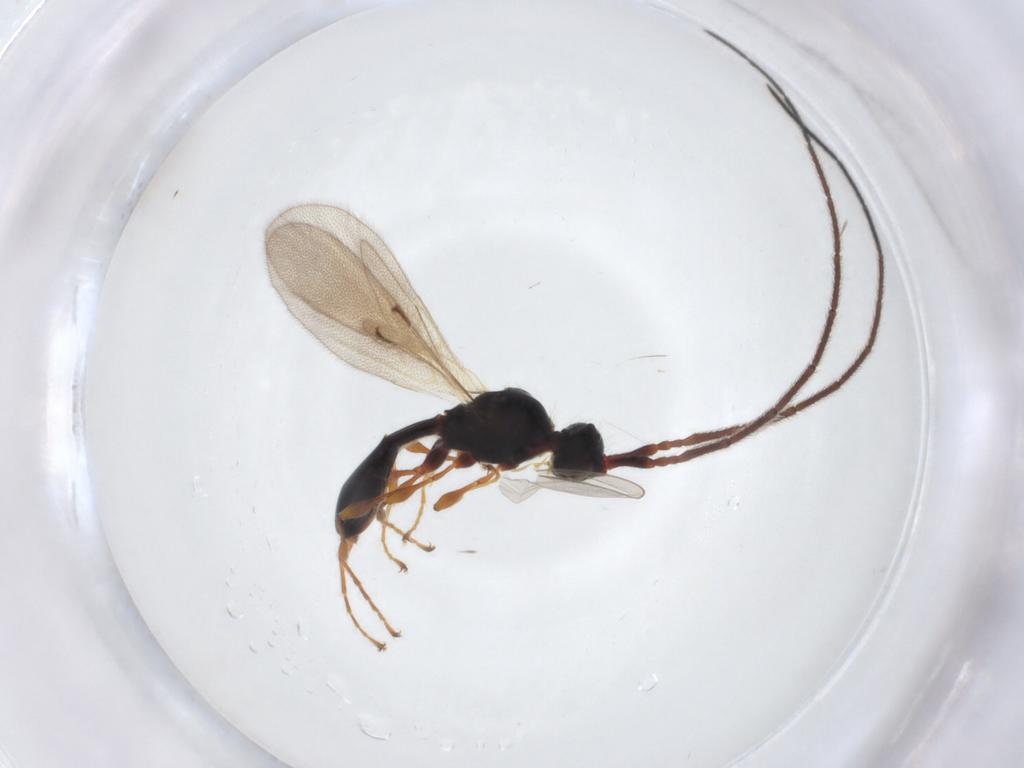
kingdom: Animalia
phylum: Arthropoda
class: Insecta
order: Hymenoptera
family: Diapriidae
